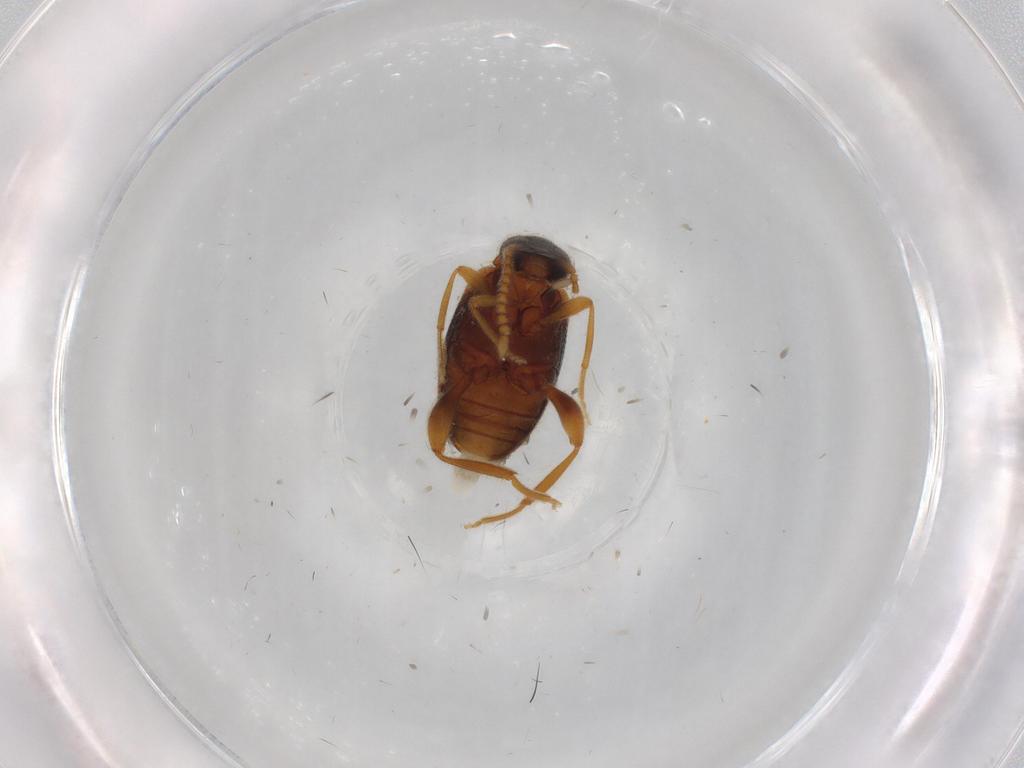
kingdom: Animalia
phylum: Arthropoda
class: Insecta
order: Coleoptera
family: Aderidae
